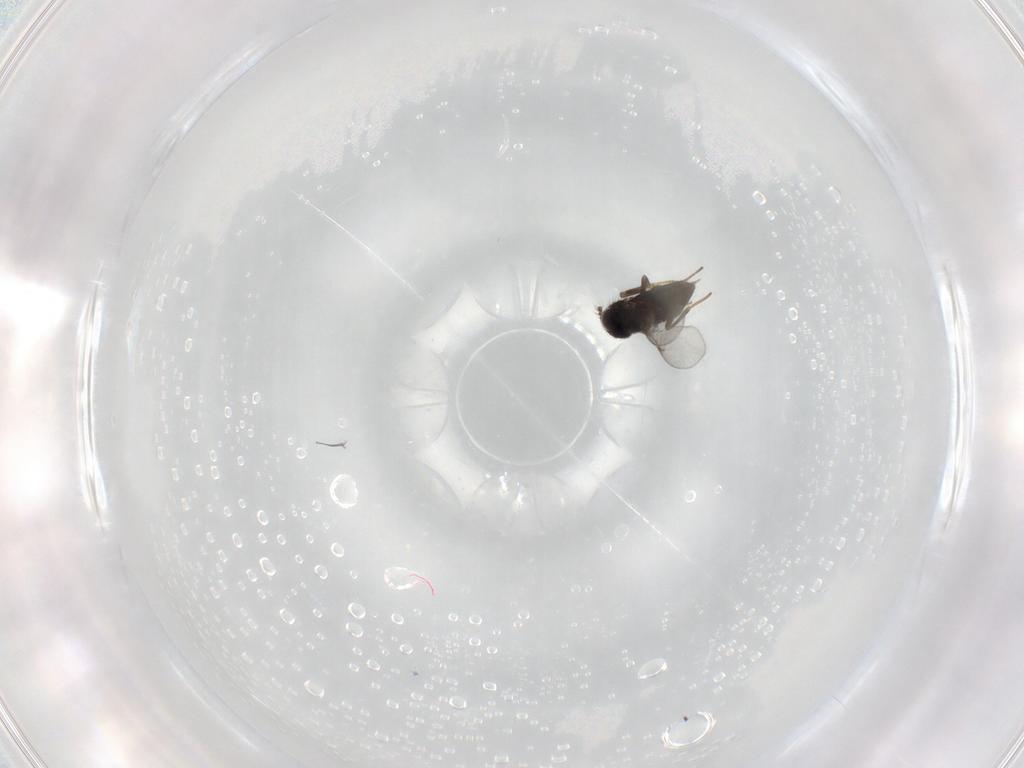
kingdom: Animalia
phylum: Arthropoda
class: Insecta
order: Hymenoptera
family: Encyrtidae
